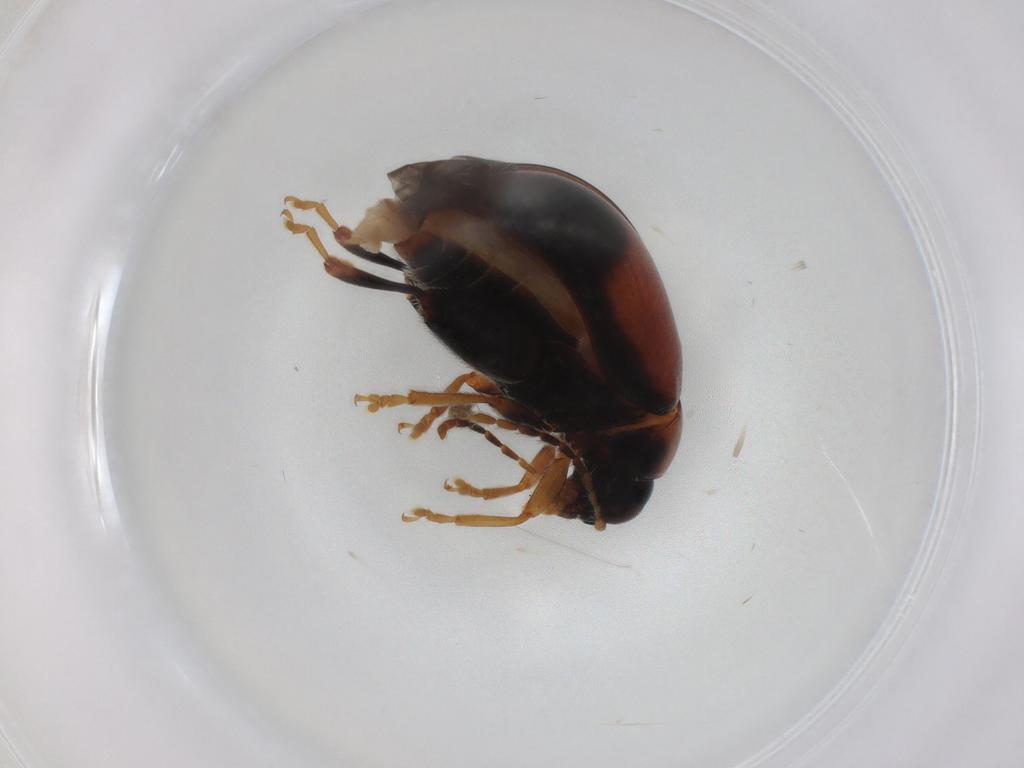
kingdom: Animalia
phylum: Arthropoda
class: Insecta
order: Coleoptera
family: Chrysomelidae
